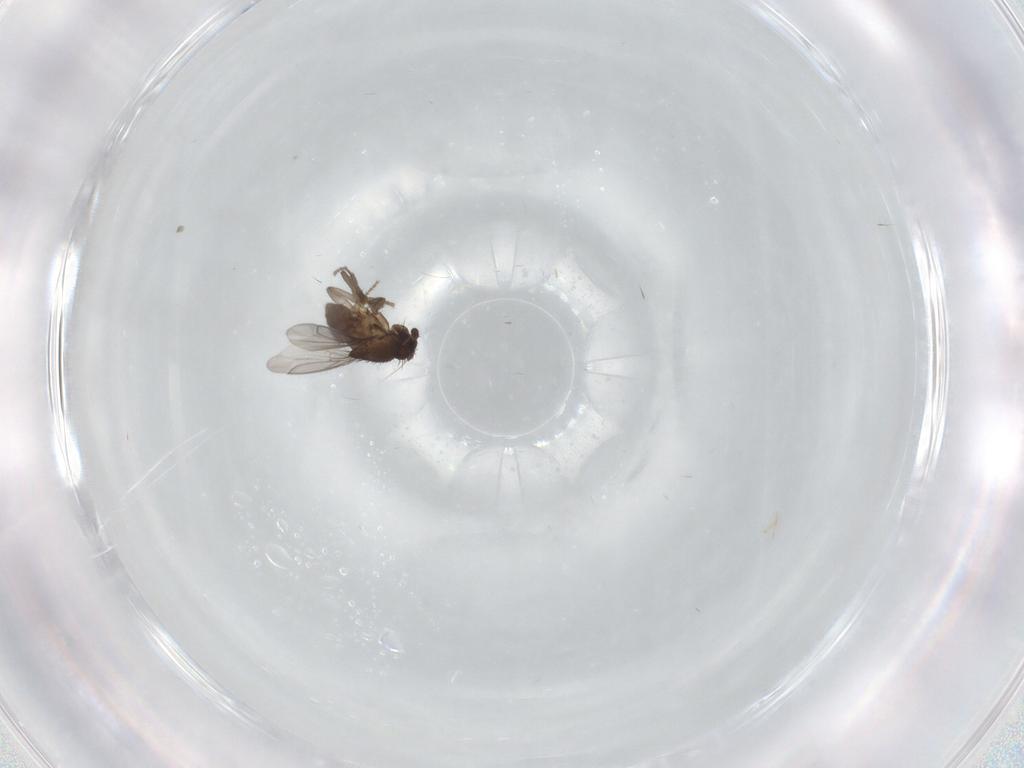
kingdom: Animalia
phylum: Arthropoda
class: Insecta
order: Diptera
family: Sphaeroceridae
